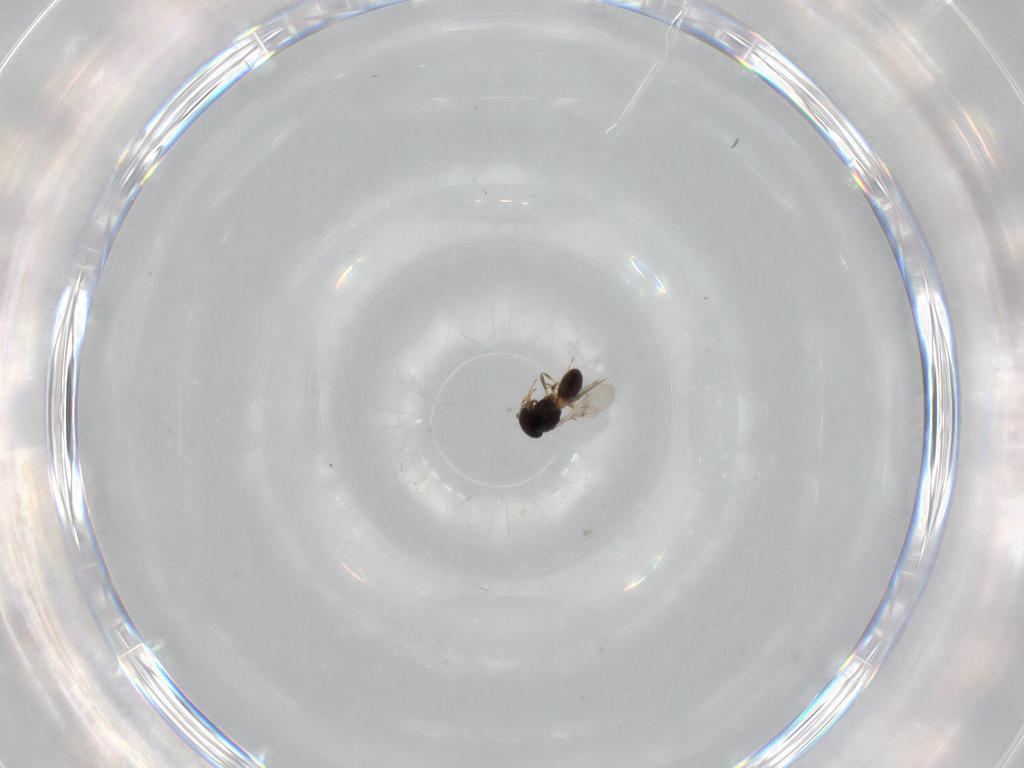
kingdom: Animalia
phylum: Arthropoda
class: Insecta
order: Hymenoptera
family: Scelionidae
